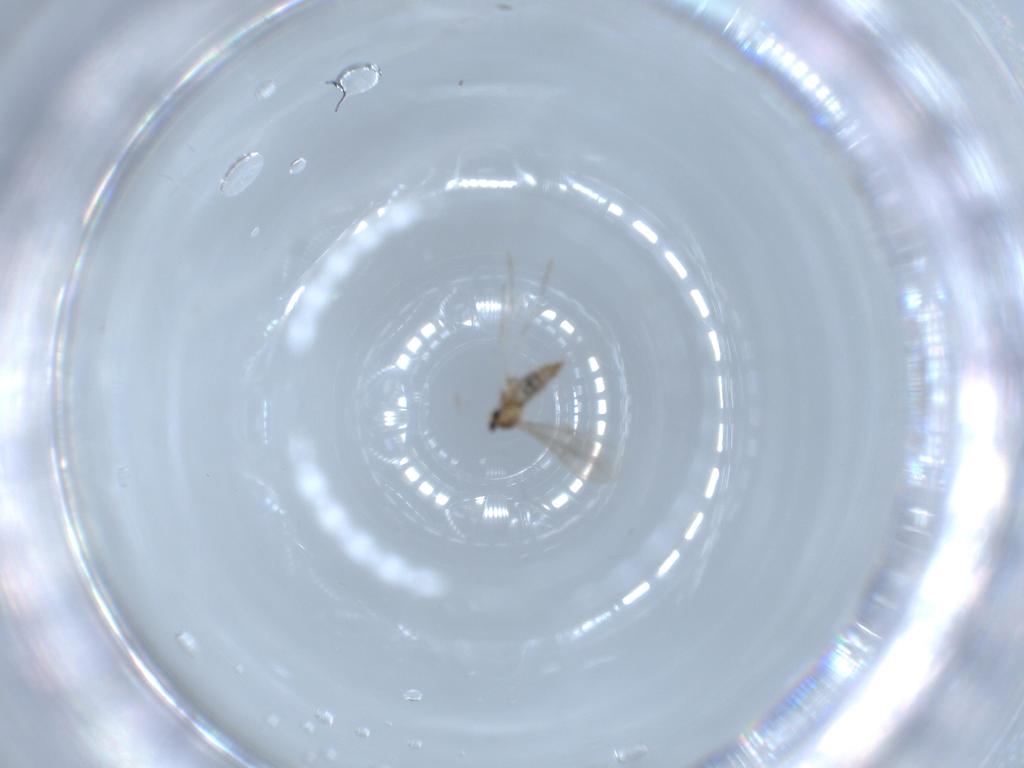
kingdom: Animalia
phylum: Arthropoda
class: Insecta
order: Diptera
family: Cecidomyiidae
